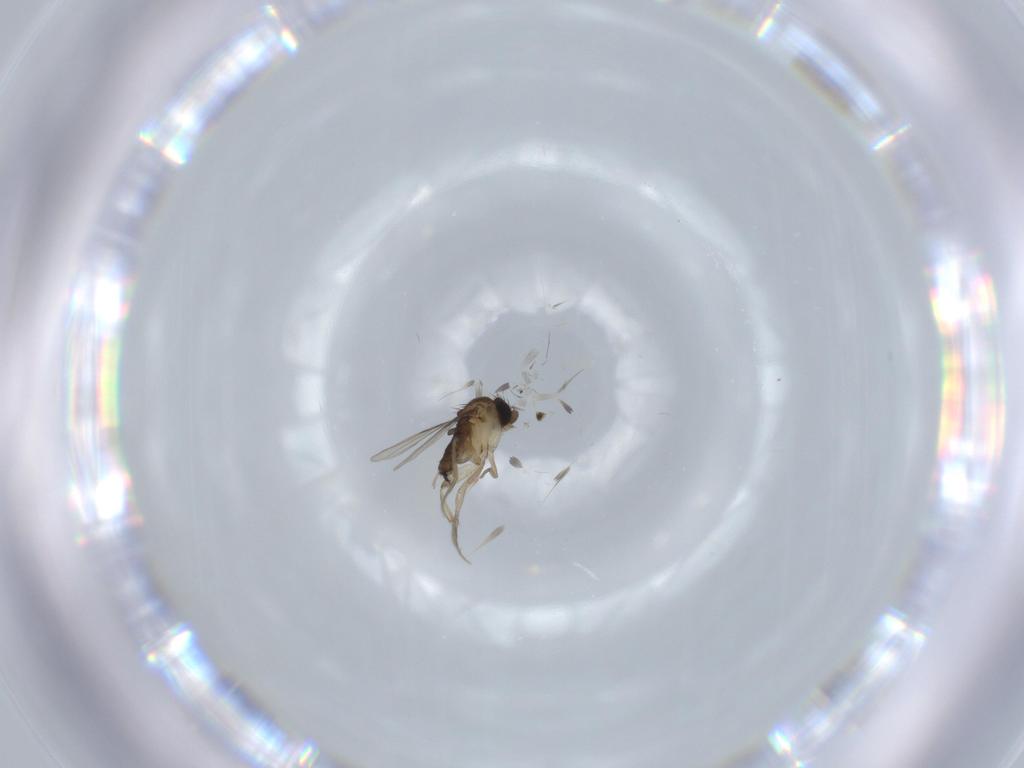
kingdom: Animalia
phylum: Arthropoda
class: Insecta
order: Diptera
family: Phoridae
